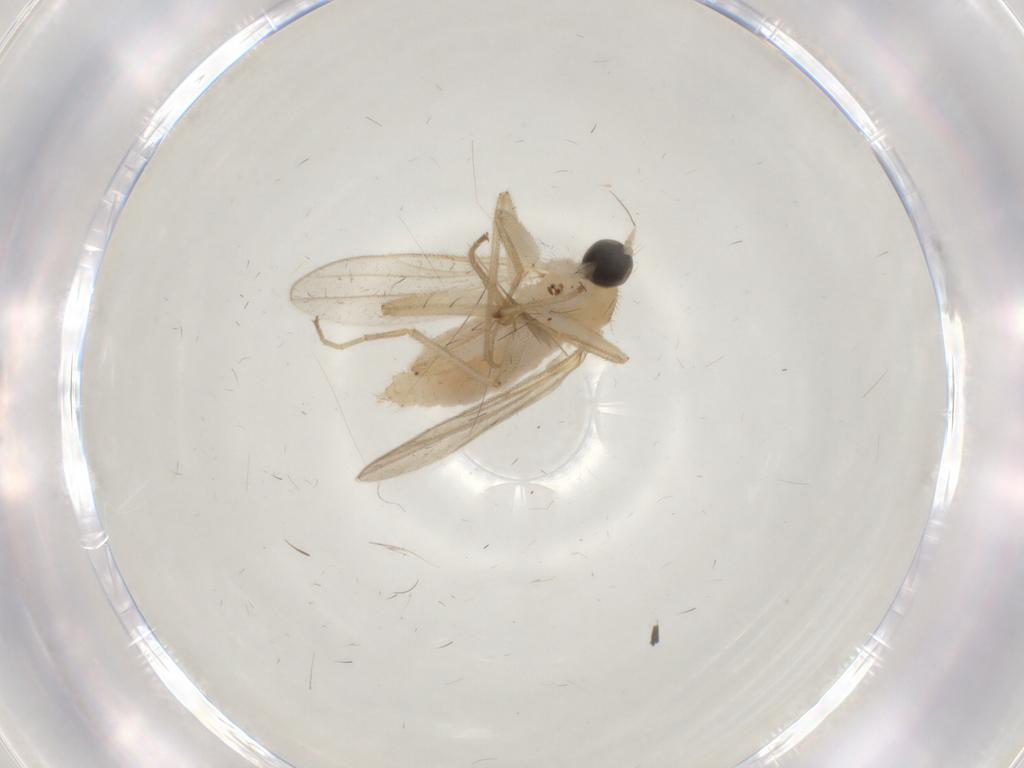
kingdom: Animalia
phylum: Arthropoda
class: Insecta
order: Diptera
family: Hybotidae
